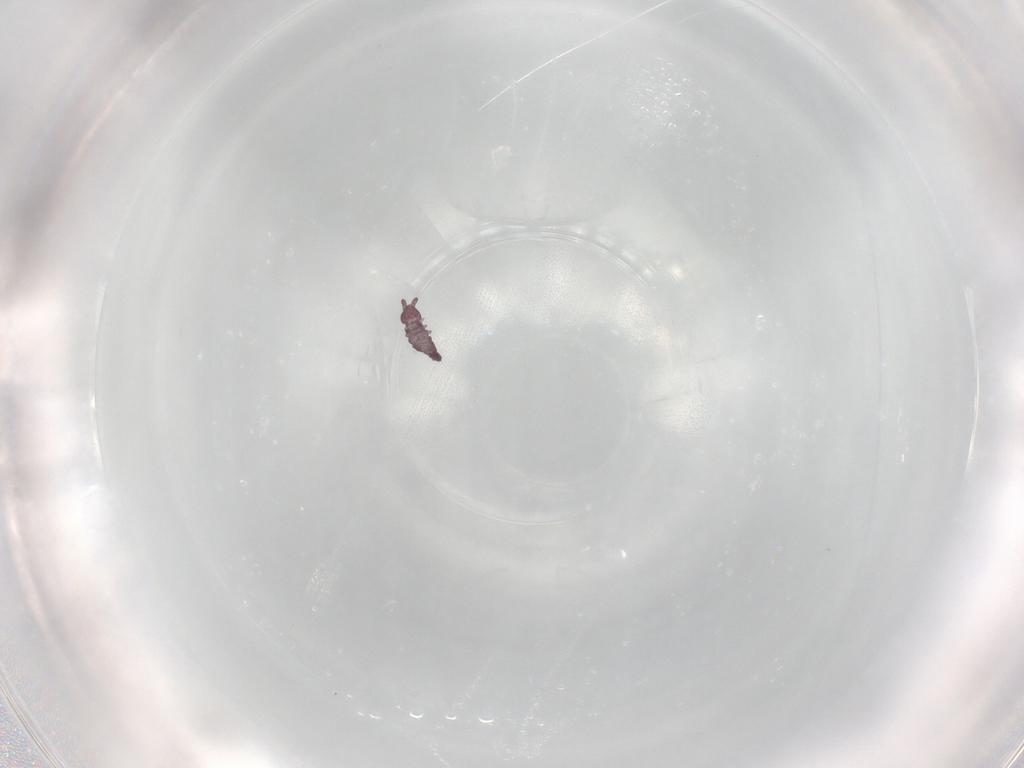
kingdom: Animalia
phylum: Arthropoda
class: Collembola
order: Poduromorpha
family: Hypogastruridae
